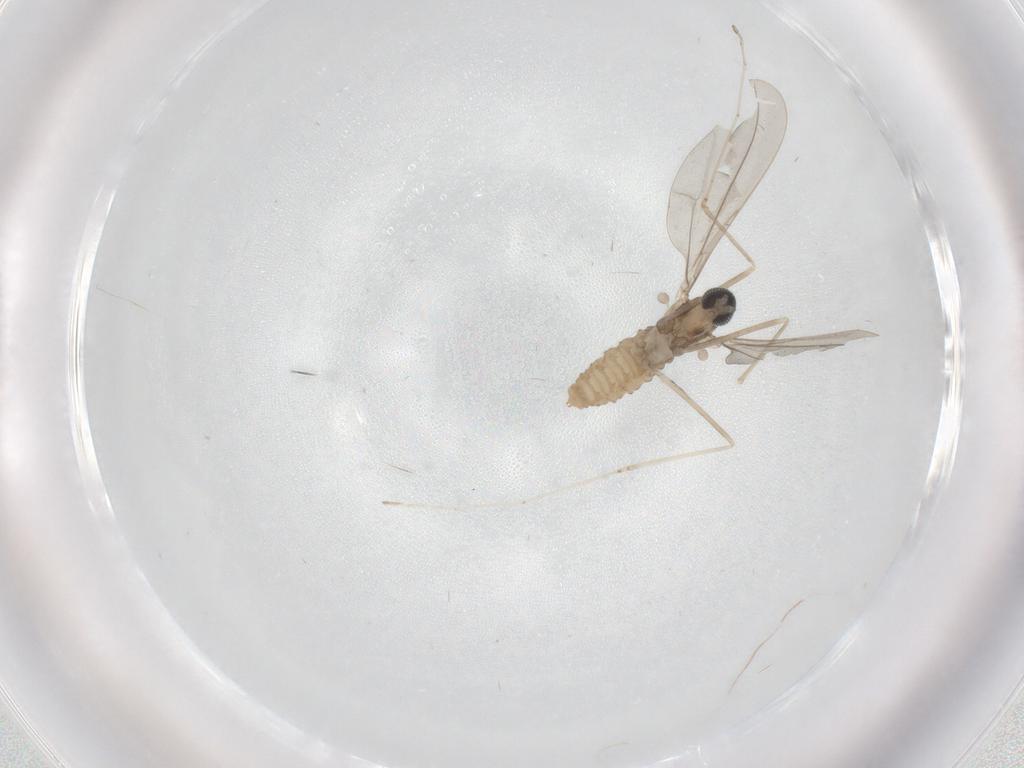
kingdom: Animalia
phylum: Arthropoda
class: Insecta
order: Diptera
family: Cecidomyiidae
